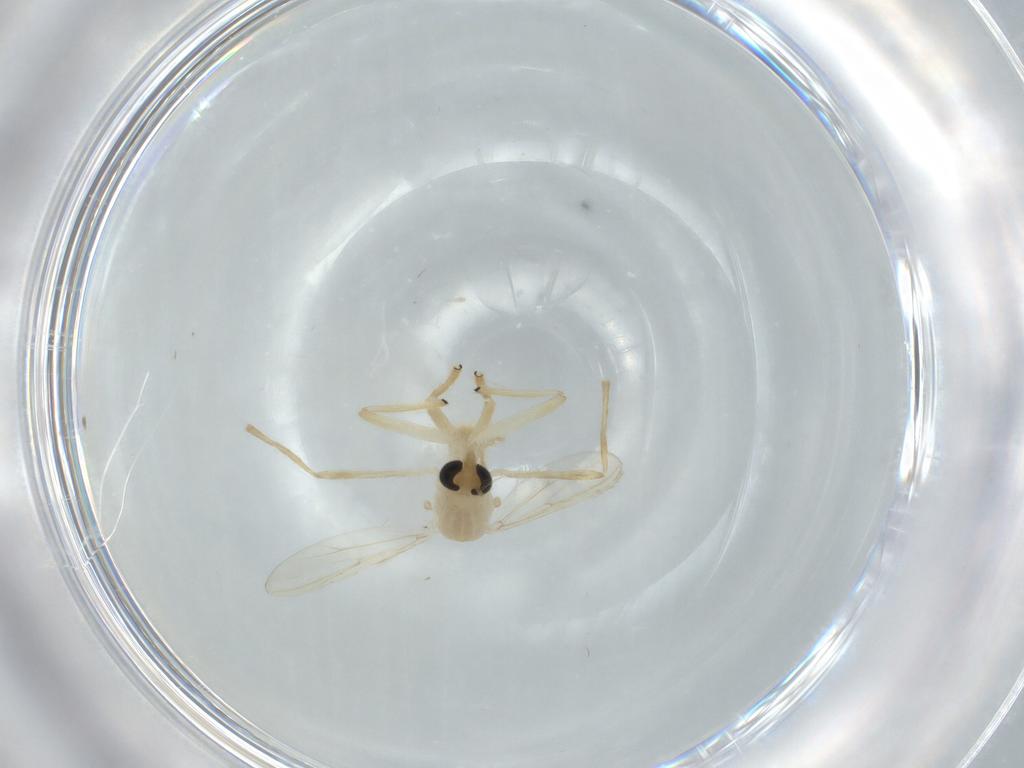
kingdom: Animalia
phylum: Arthropoda
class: Insecta
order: Diptera
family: Chironomidae
